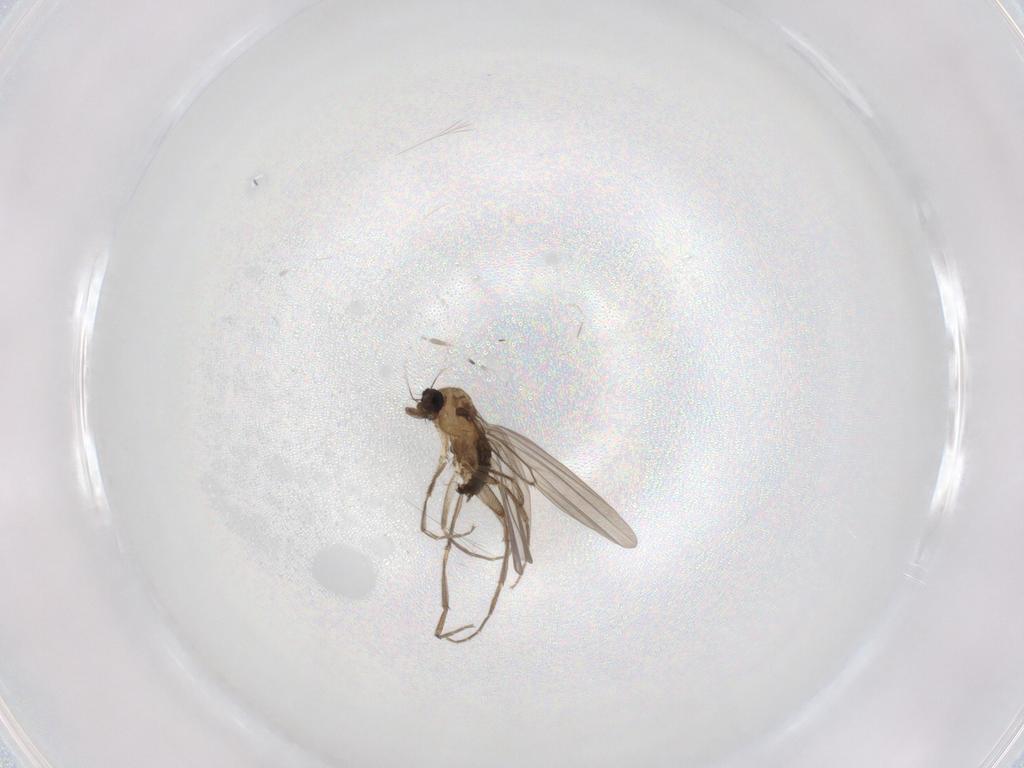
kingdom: Animalia
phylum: Arthropoda
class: Insecta
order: Diptera
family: Phoridae
